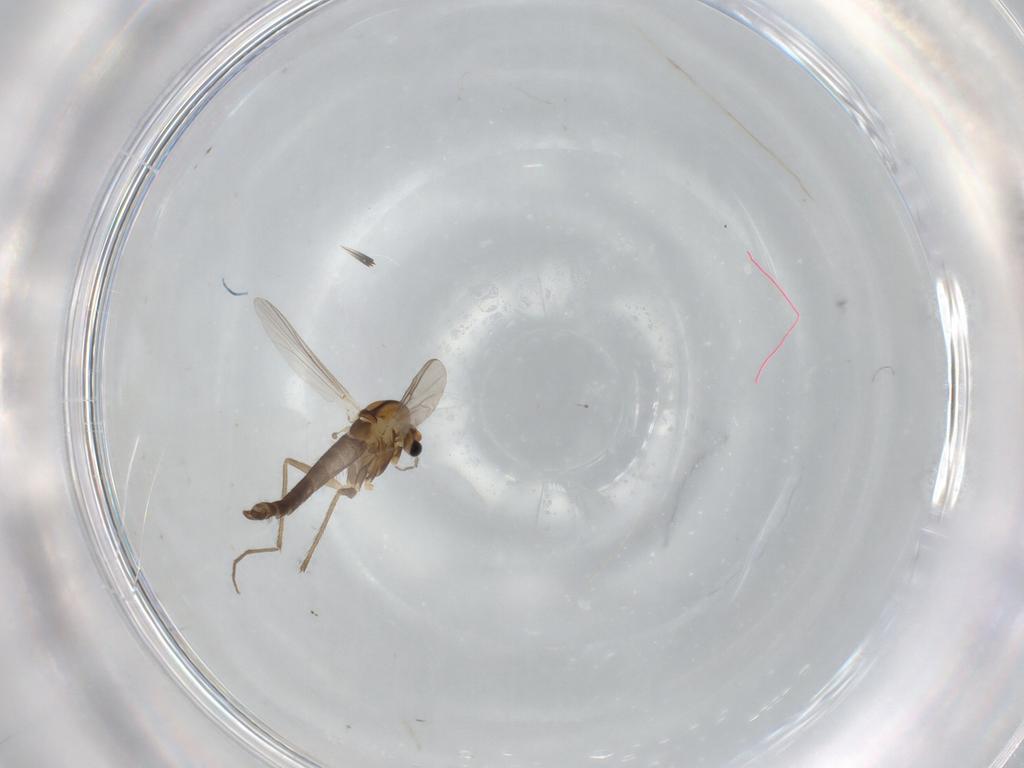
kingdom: Animalia
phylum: Arthropoda
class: Insecta
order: Diptera
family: Chironomidae
